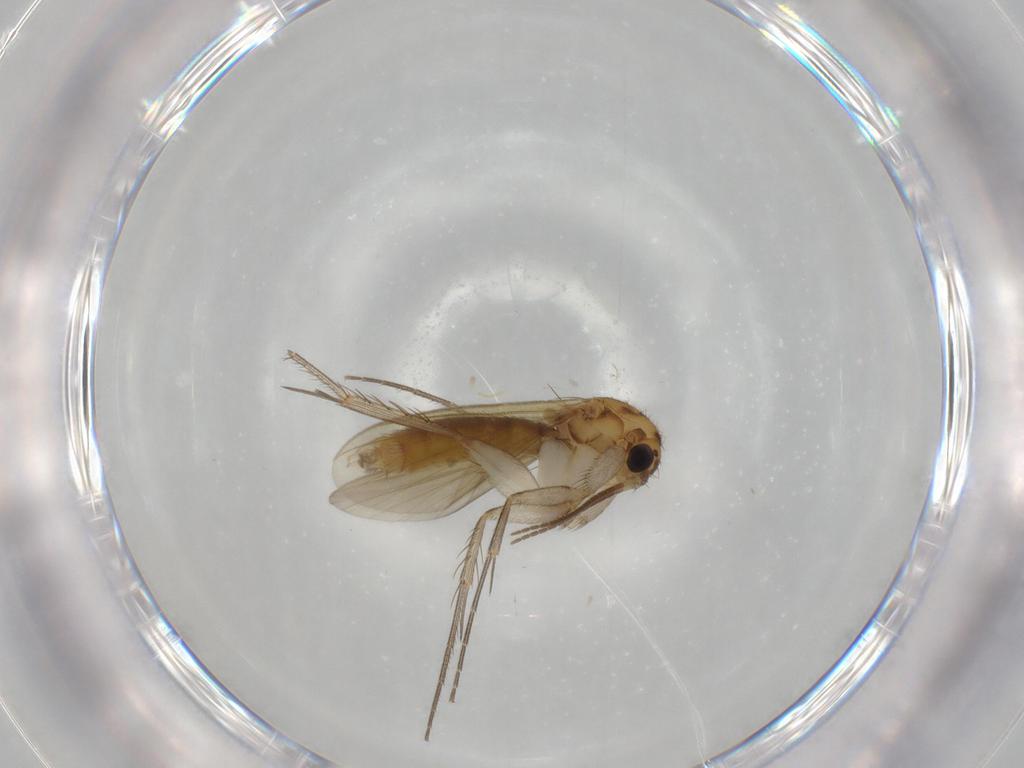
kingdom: Animalia
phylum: Arthropoda
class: Insecta
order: Diptera
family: Mycetophilidae
